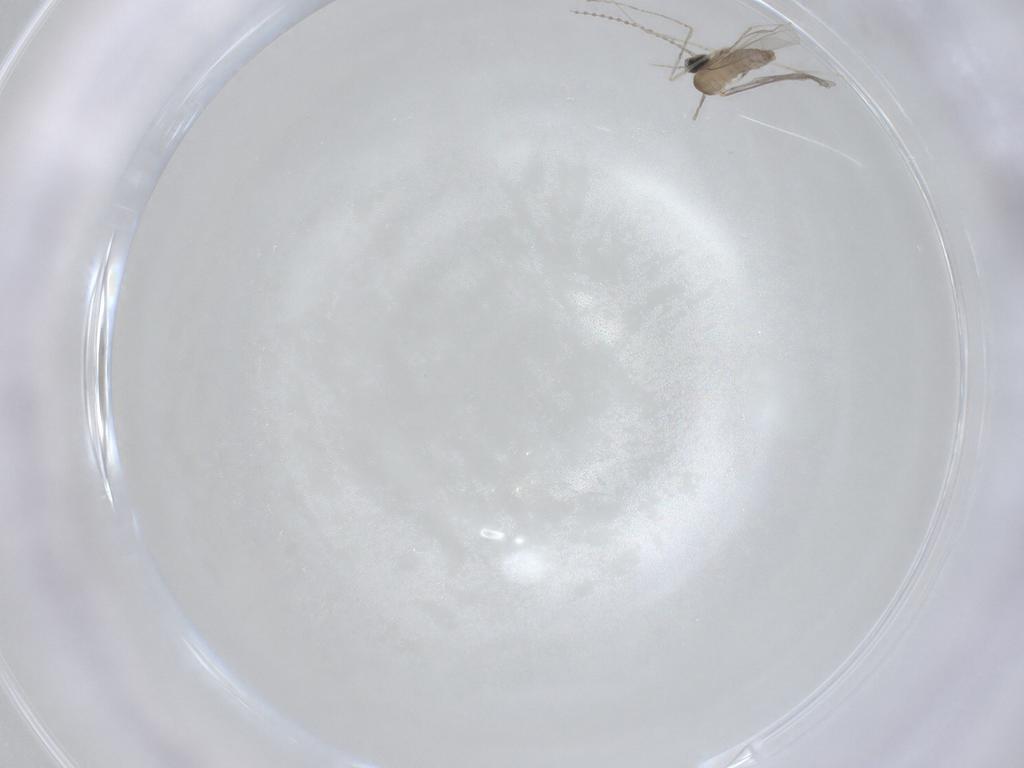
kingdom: Animalia
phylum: Arthropoda
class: Insecta
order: Diptera
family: Cecidomyiidae
